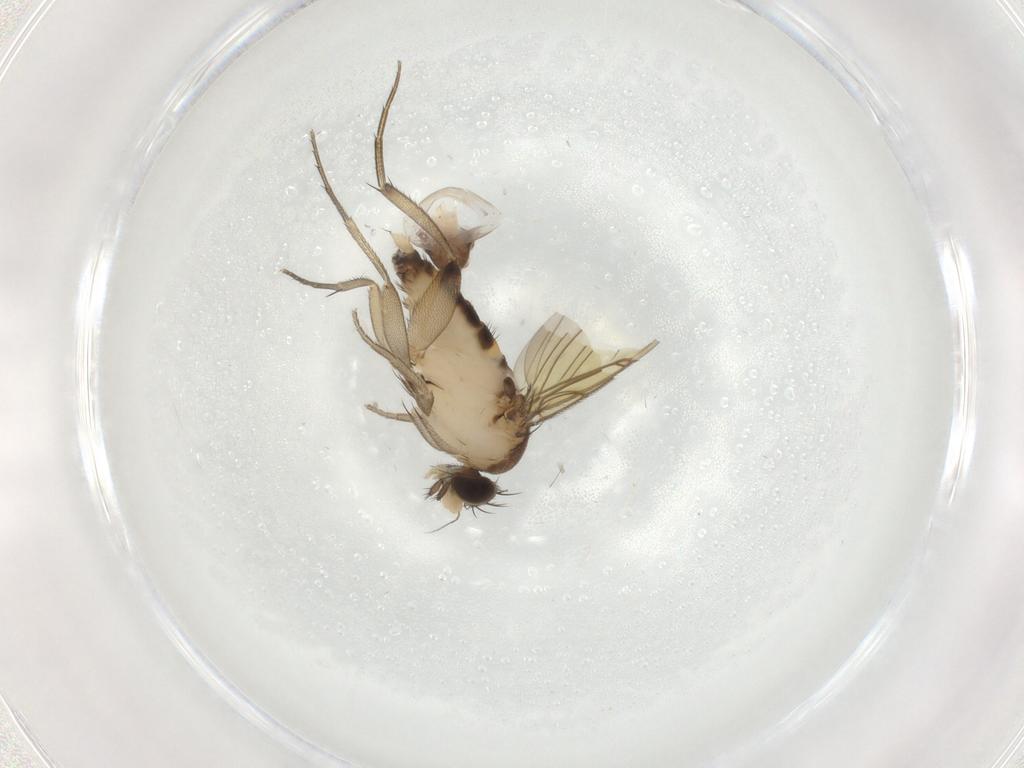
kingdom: Animalia
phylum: Arthropoda
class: Insecta
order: Diptera
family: Phoridae
